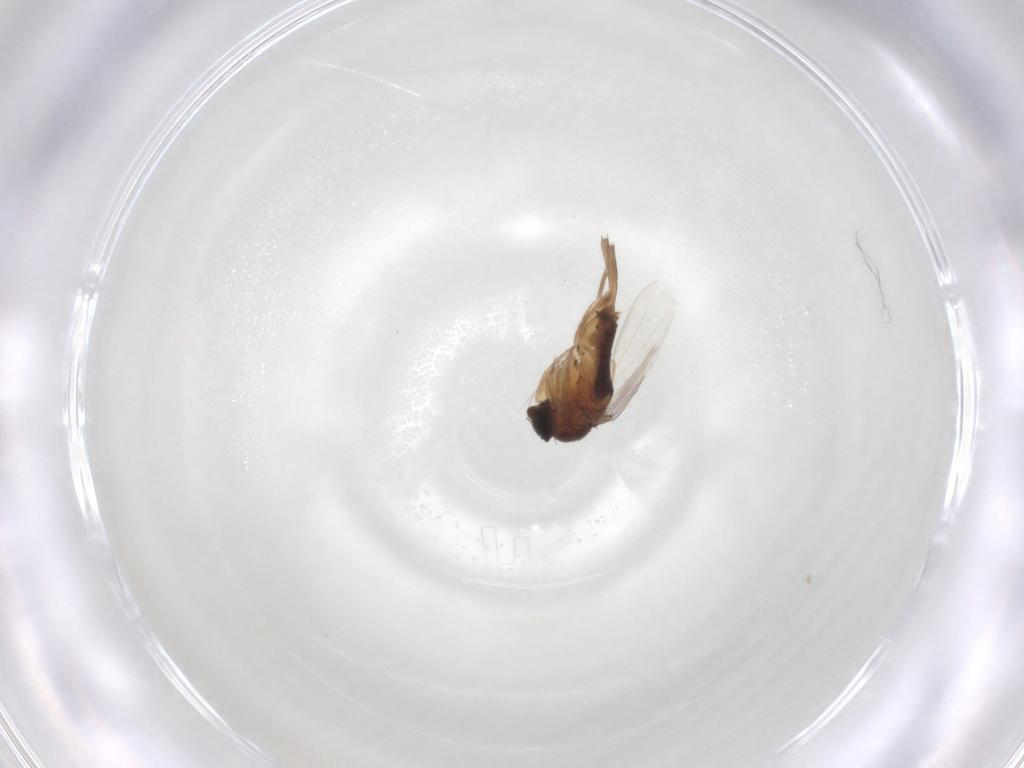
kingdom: Animalia
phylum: Arthropoda
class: Insecta
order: Diptera
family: Phoridae
